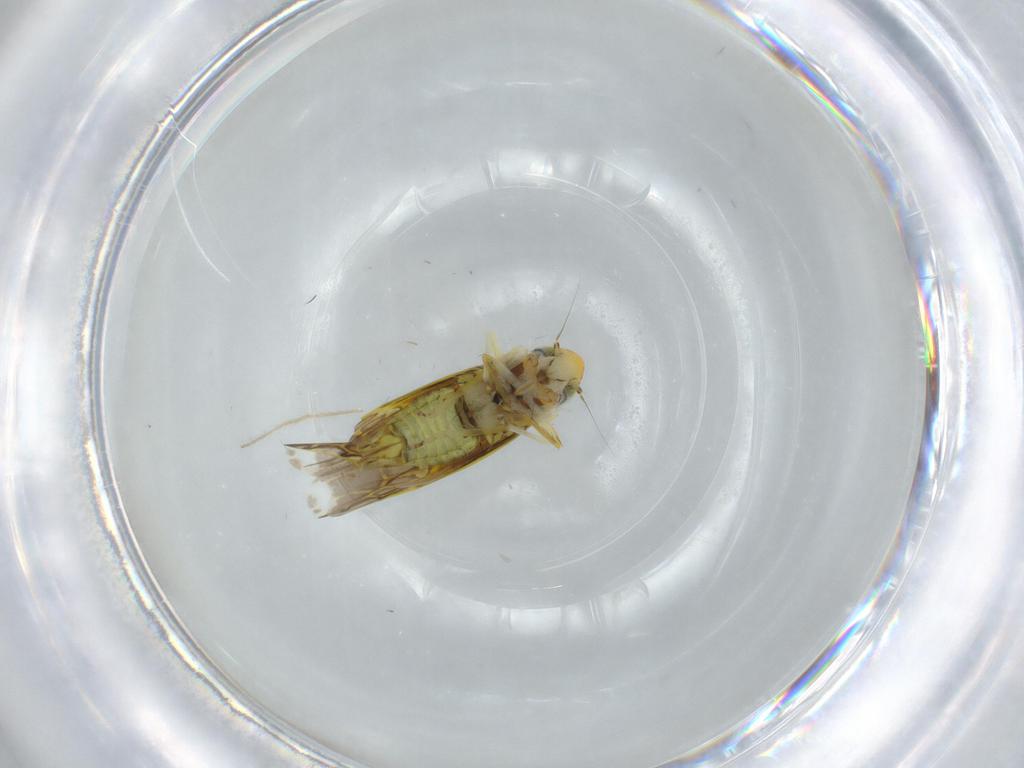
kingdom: Animalia
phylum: Arthropoda
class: Insecta
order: Hemiptera
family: Cicadellidae
